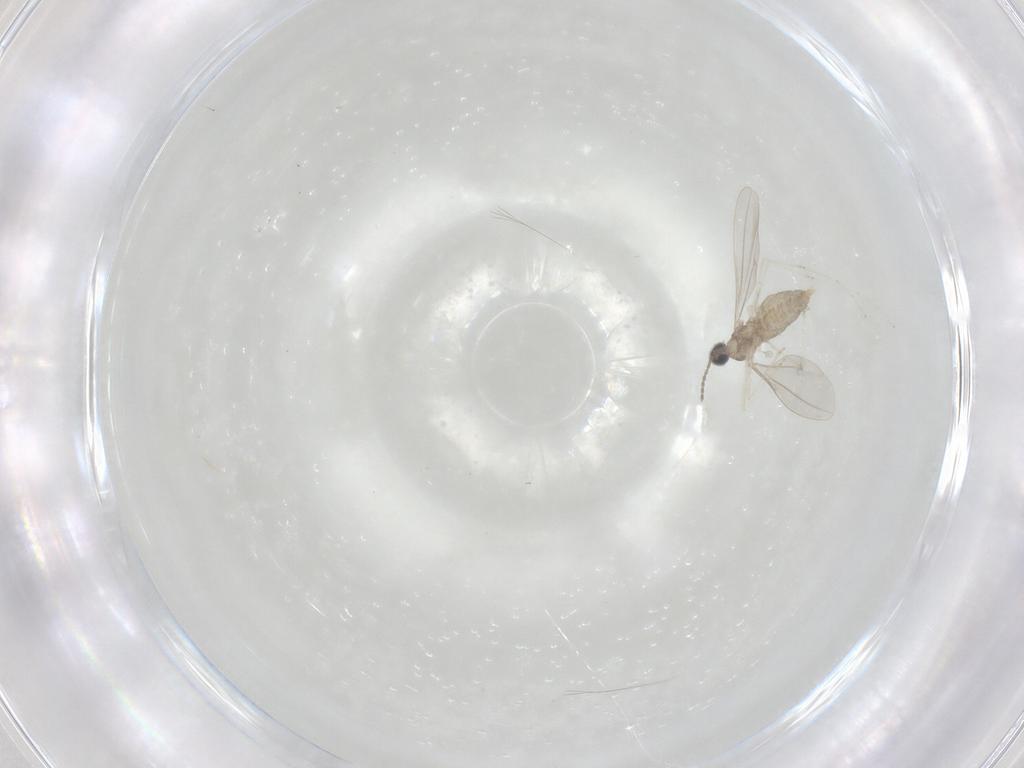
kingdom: Animalia
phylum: Arthropoda
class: Insecta
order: Diptera
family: Cecidomyiidae
